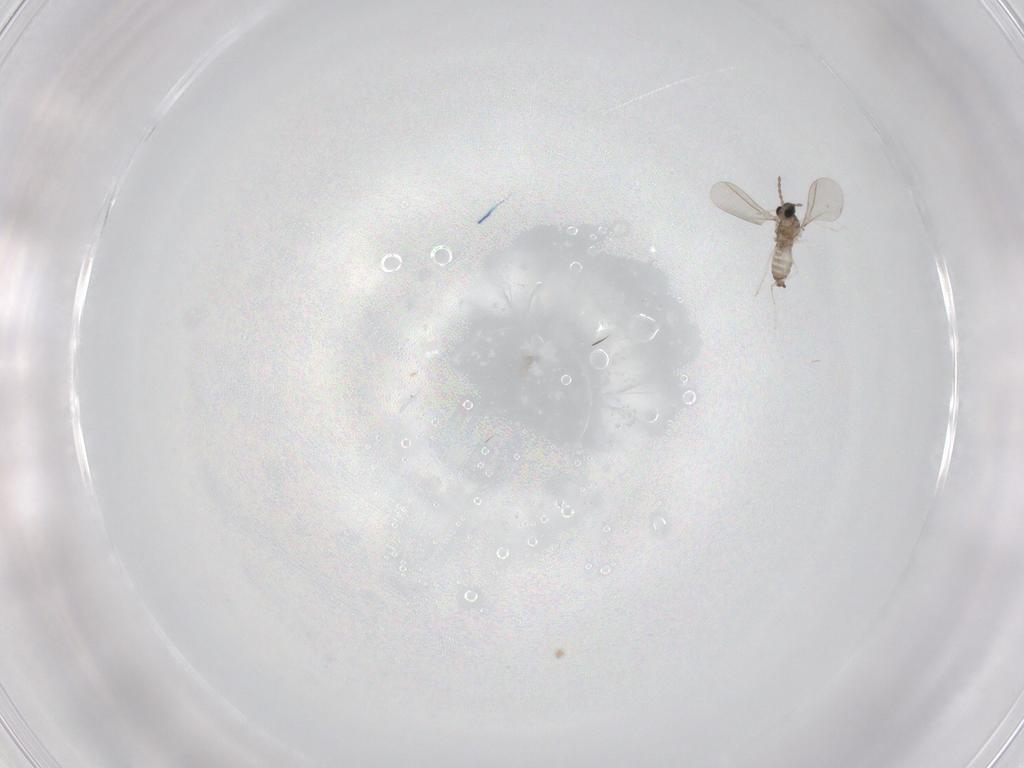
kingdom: Animalia
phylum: Arthropoda
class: Insecta
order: Diptera
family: Cecidomyiidae
